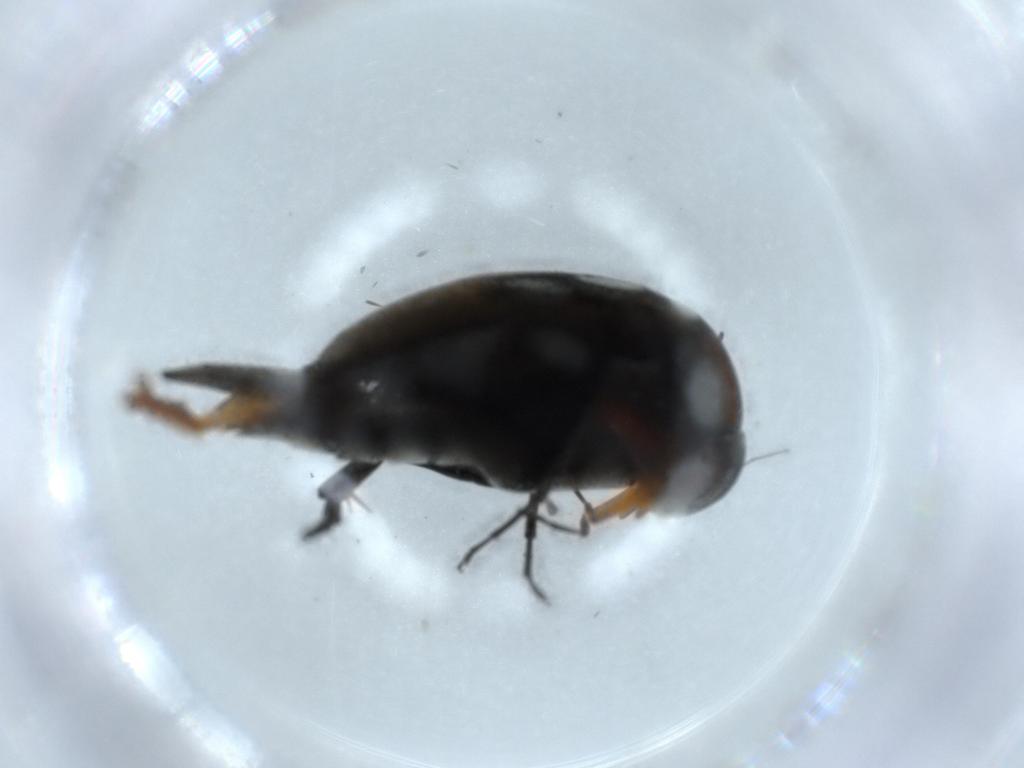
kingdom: Animalia
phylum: Arthropoda
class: Insecta
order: Coleoptera
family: Mordellidae
